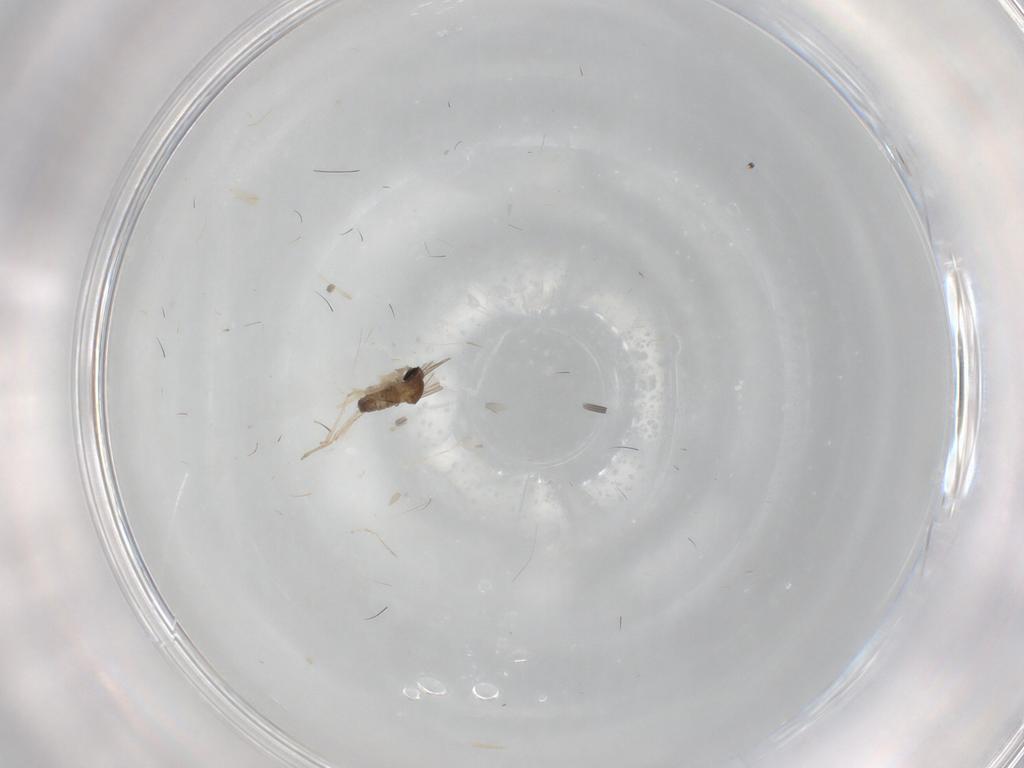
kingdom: Animalia
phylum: Arthropoda
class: Insecta
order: Diptera
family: Cecidomyiidae
